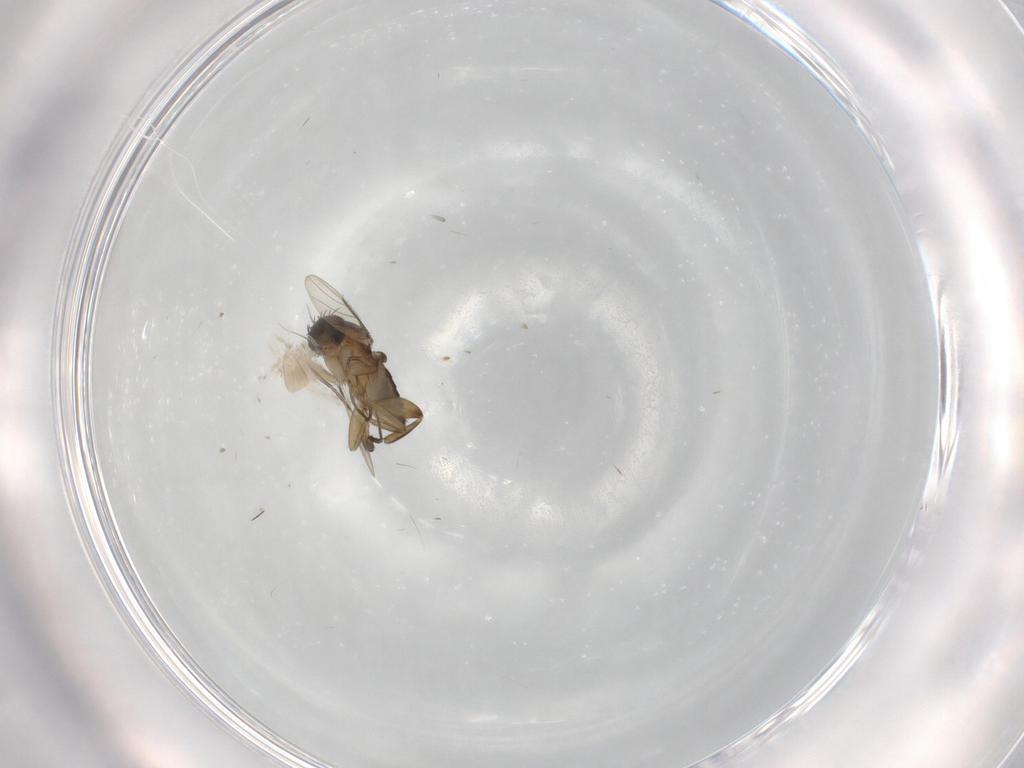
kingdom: Animalia
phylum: Arthropoda
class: Insecta
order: Diptera
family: Phoridae
